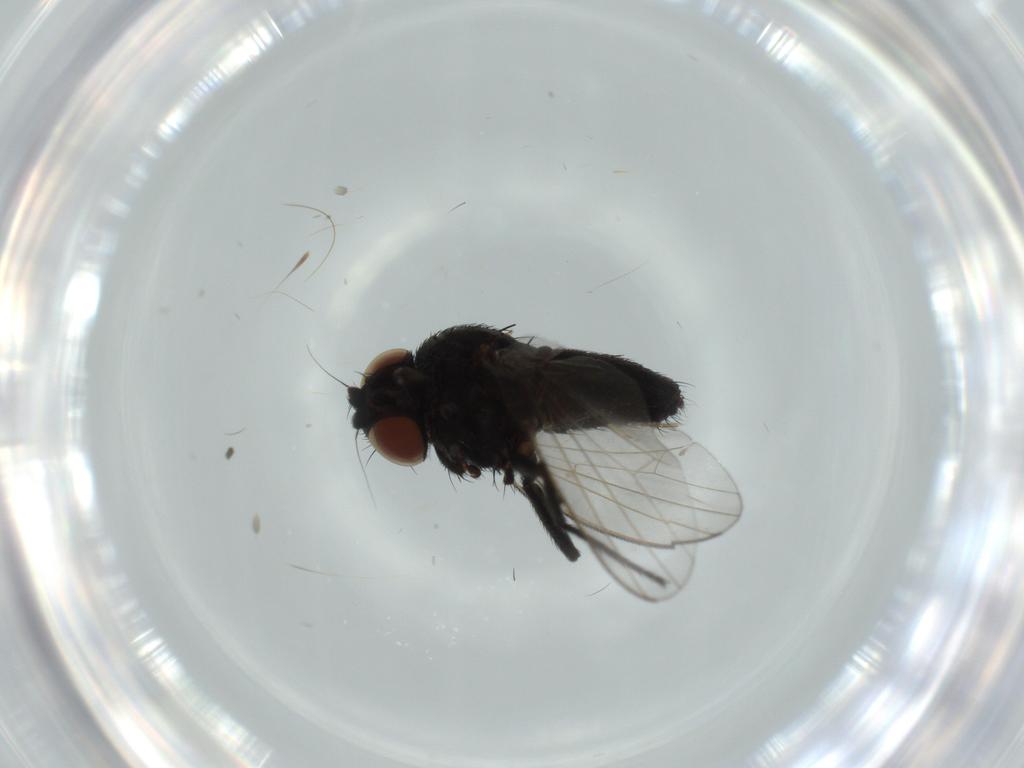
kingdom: Animalia
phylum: Arthropoda
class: Insecta
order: Diptera
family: Milichiidae
